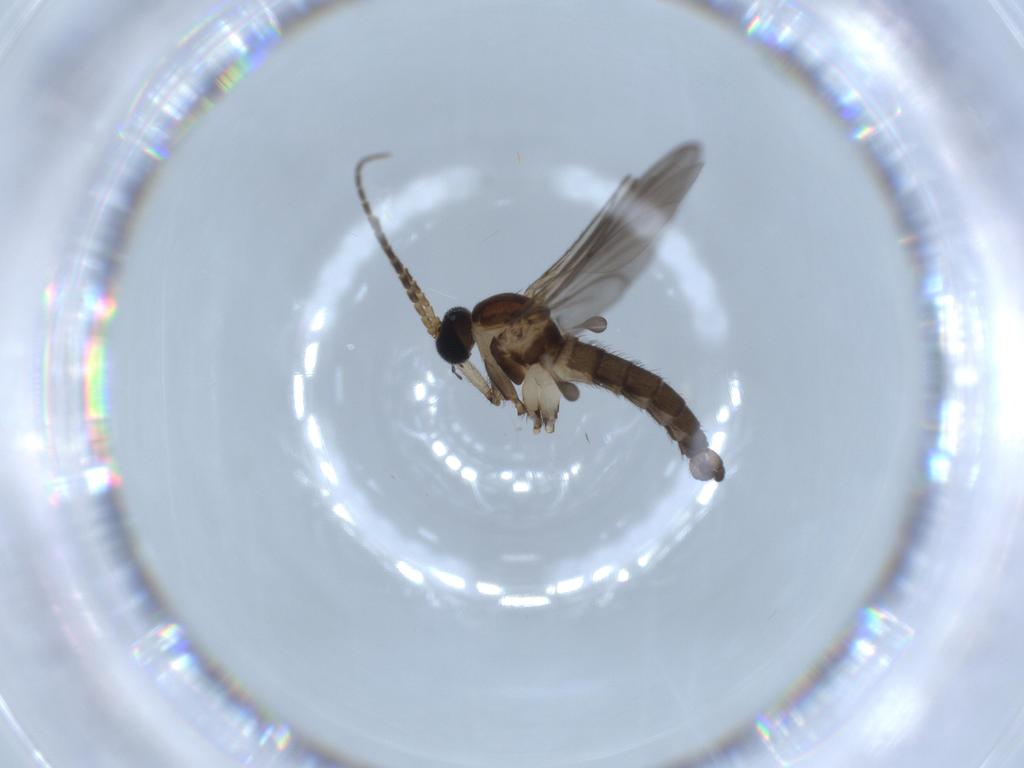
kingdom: Animalia
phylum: Arthropoda
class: Insecta
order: Diptera
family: Sciaridae
